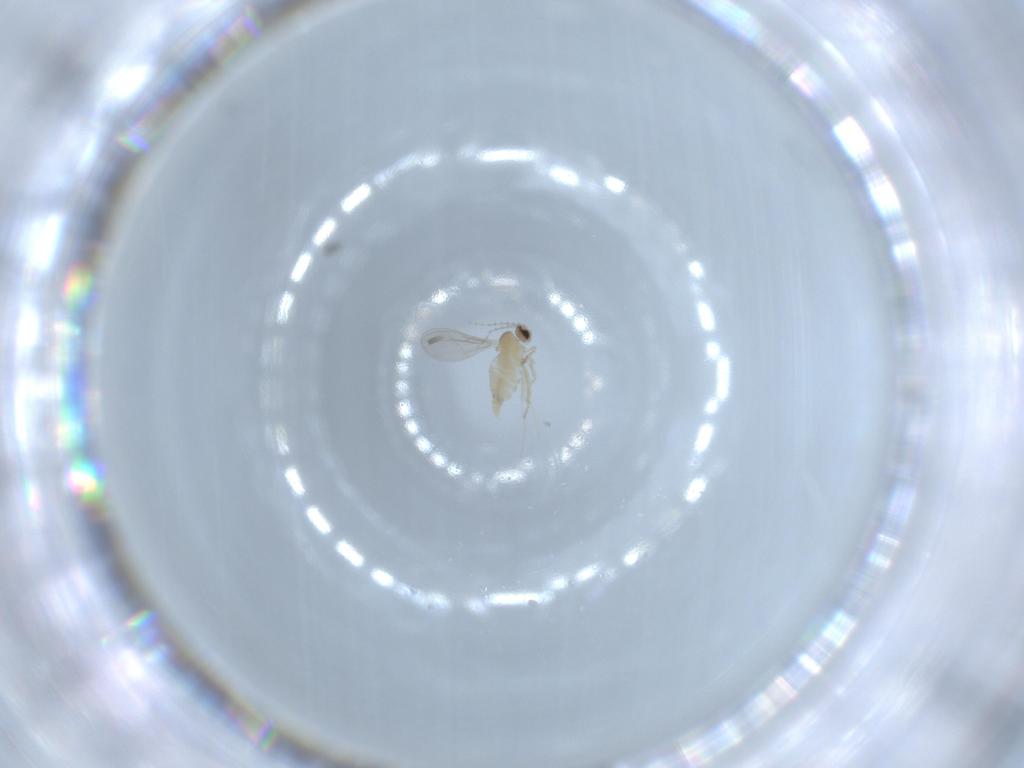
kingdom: Animalia
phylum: Arthropoda
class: Insecta
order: Diptera
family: Cecidomyiidae
